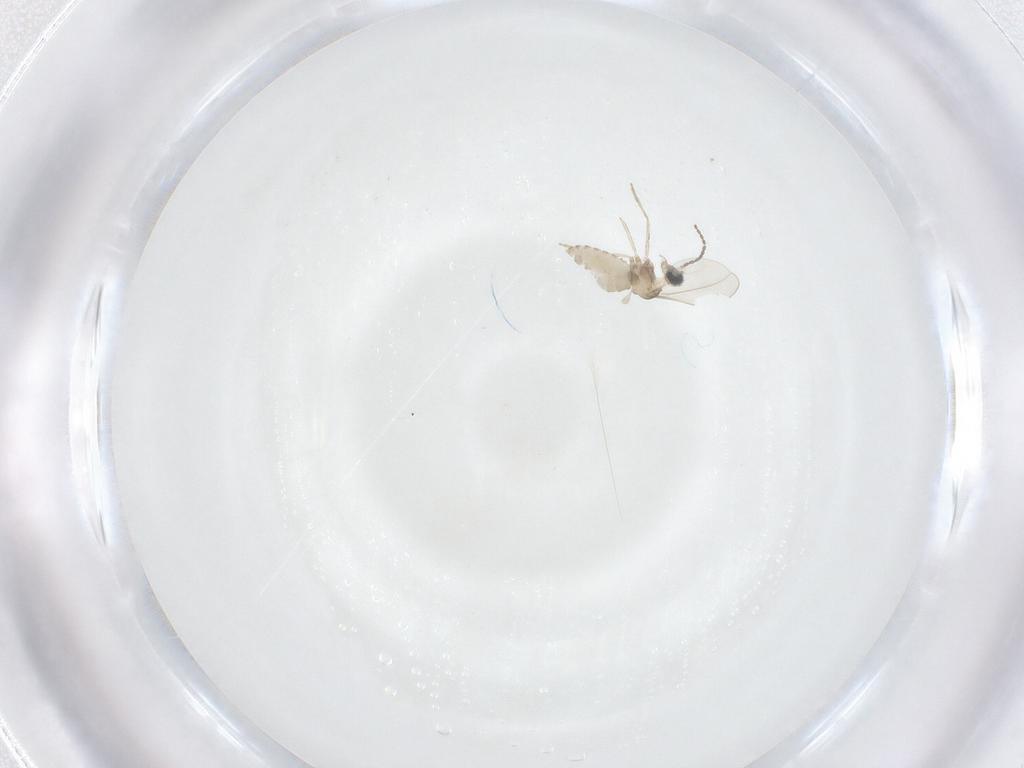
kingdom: Animalia
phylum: Arthropoda
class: Insecta
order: Diptera
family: Cecidomyiidae
